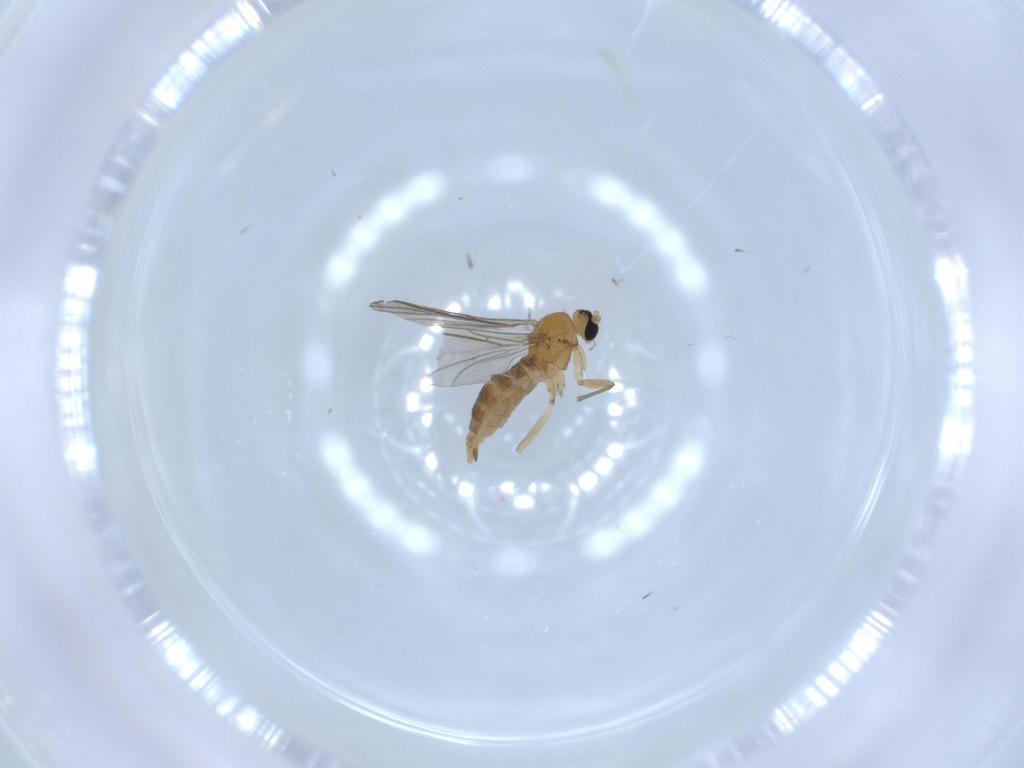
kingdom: Animalia
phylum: Arthropoda
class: Insecta
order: Diptera
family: Sciaridae
